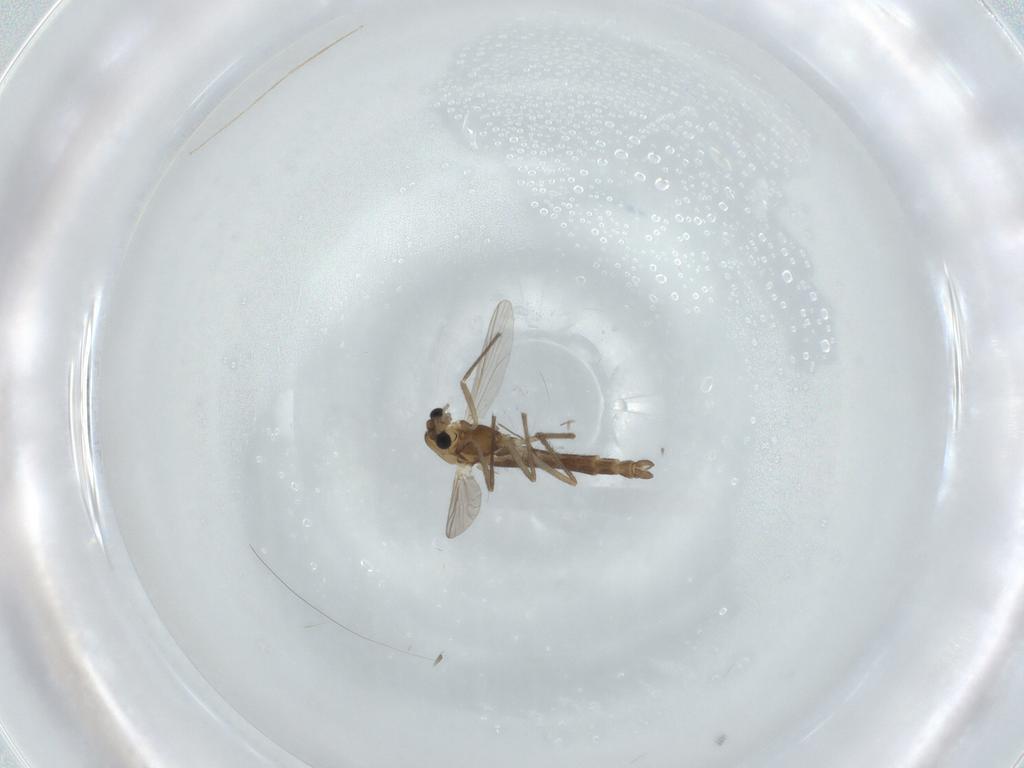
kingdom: Animalia
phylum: Arthropoda
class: Insecta
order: Diptera
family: Chironomidae
